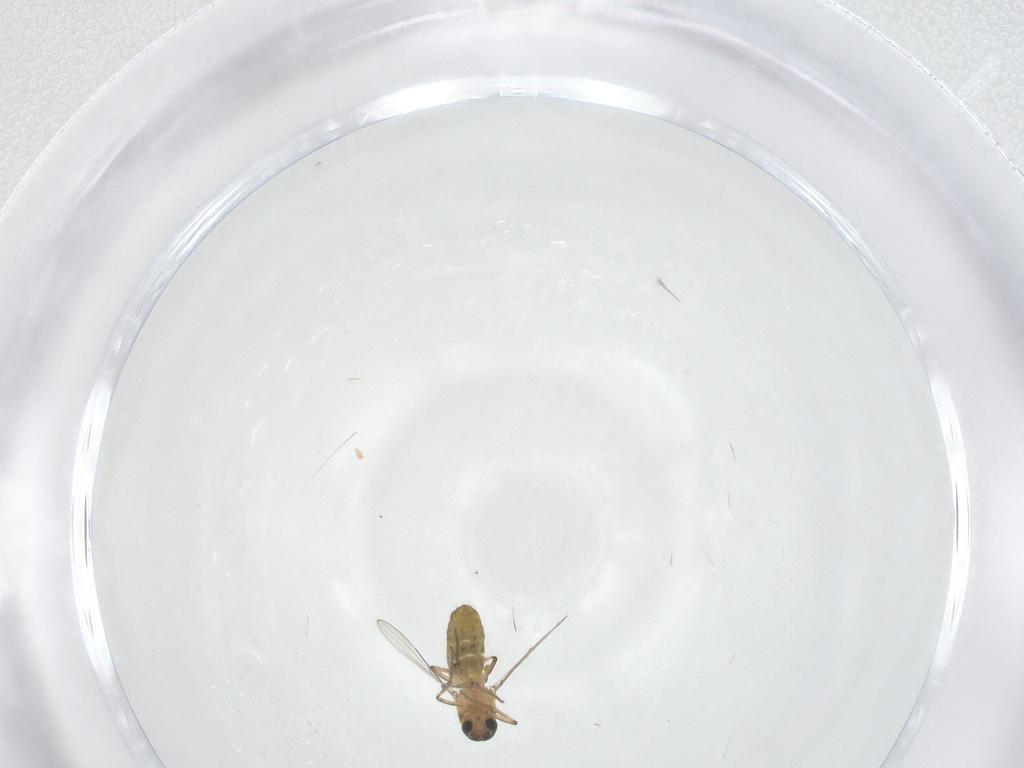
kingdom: Animalia
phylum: Arthropoda
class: Insecta
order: Diptera
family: Ceratopogonidae
